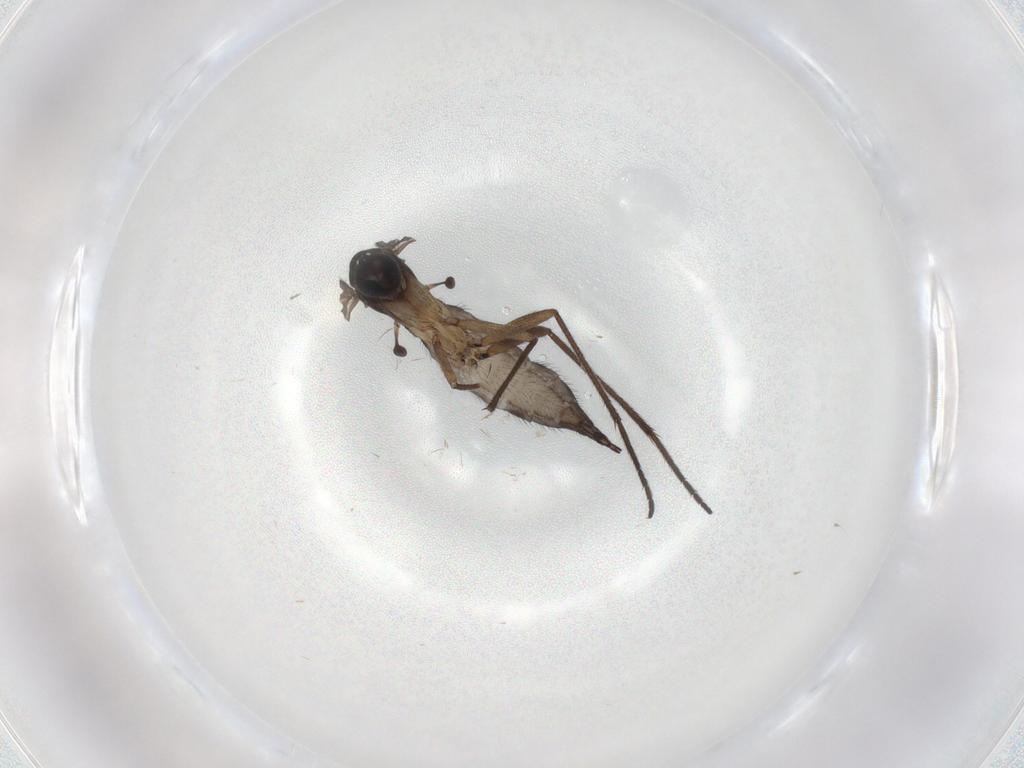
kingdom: Animalia
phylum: Arthropoda
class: Insecta
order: Diptera
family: Sciaridae
